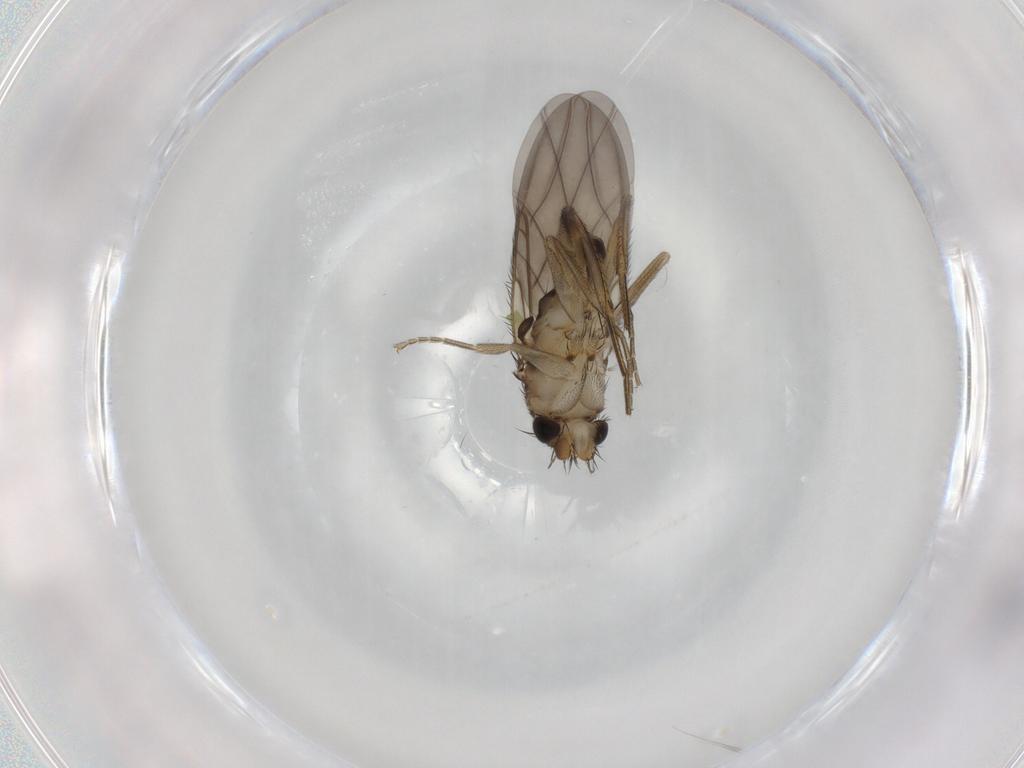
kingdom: Animalia
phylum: Arthropoda
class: Insecta
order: Diptera
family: Phoridae
